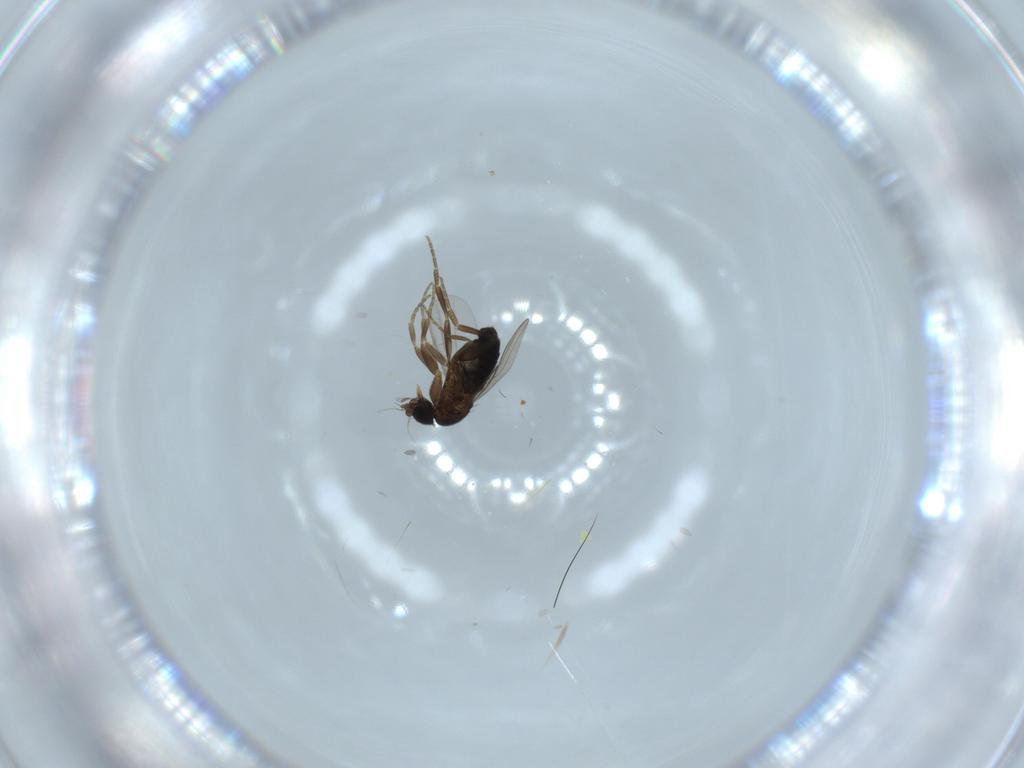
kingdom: Animalia
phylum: Arthropoda
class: Insecta
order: Diptera
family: Phoridae
